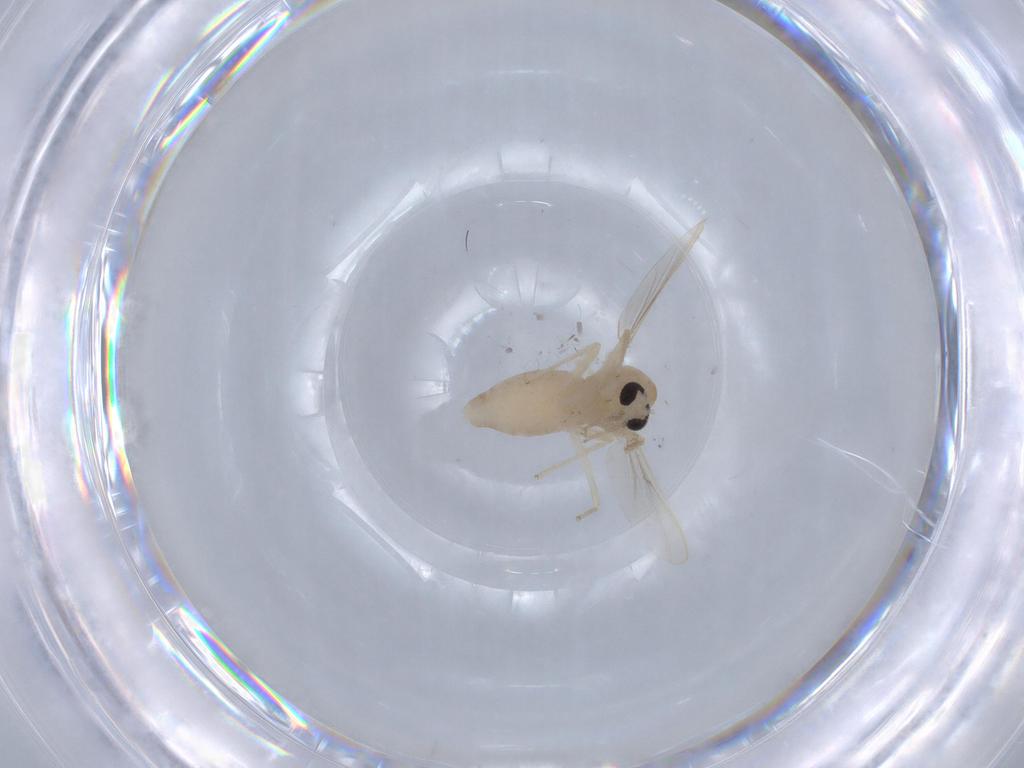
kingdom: Animalia
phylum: Arthropoda
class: Insecta
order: Diptera
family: Chironomidae
